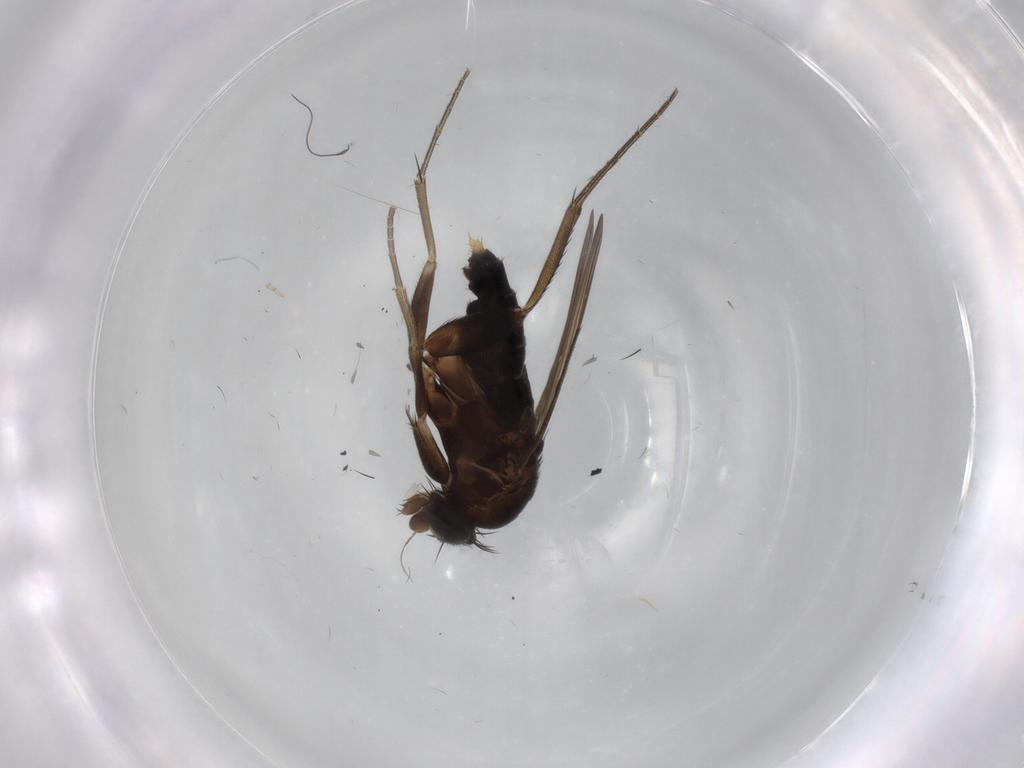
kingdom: Animalia
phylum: Arthropoda
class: Insecta
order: Diptera
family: Phoridae
